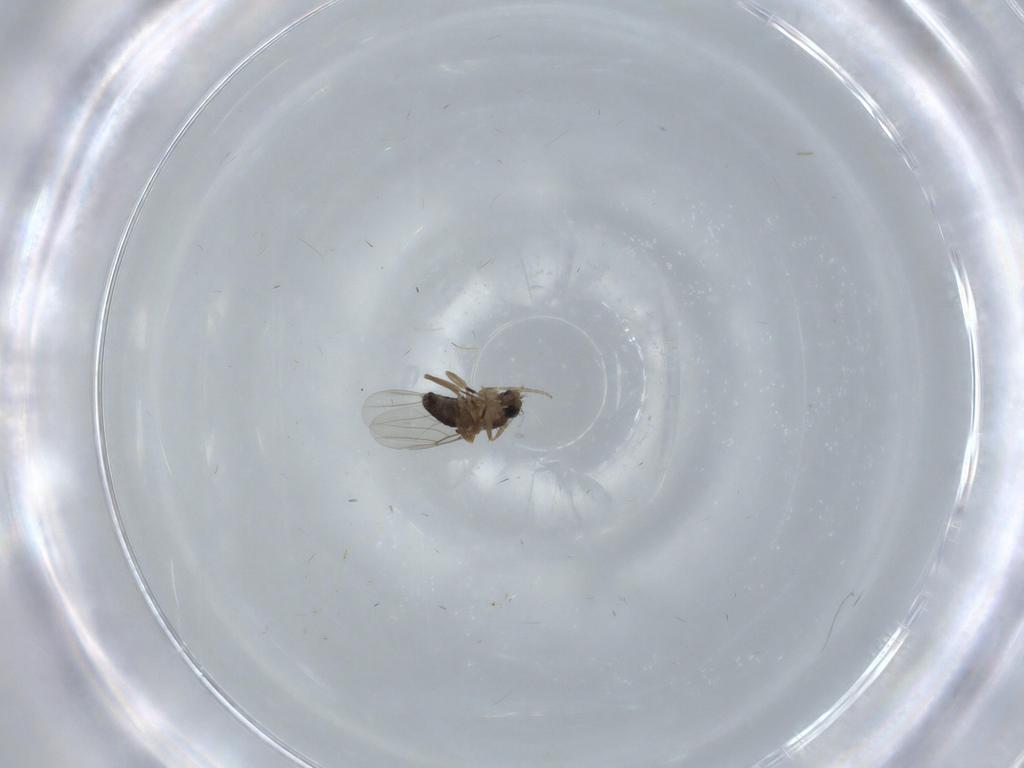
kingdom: Animalia
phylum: Arthropoda
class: Insecta
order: Diptera
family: Phoridae
